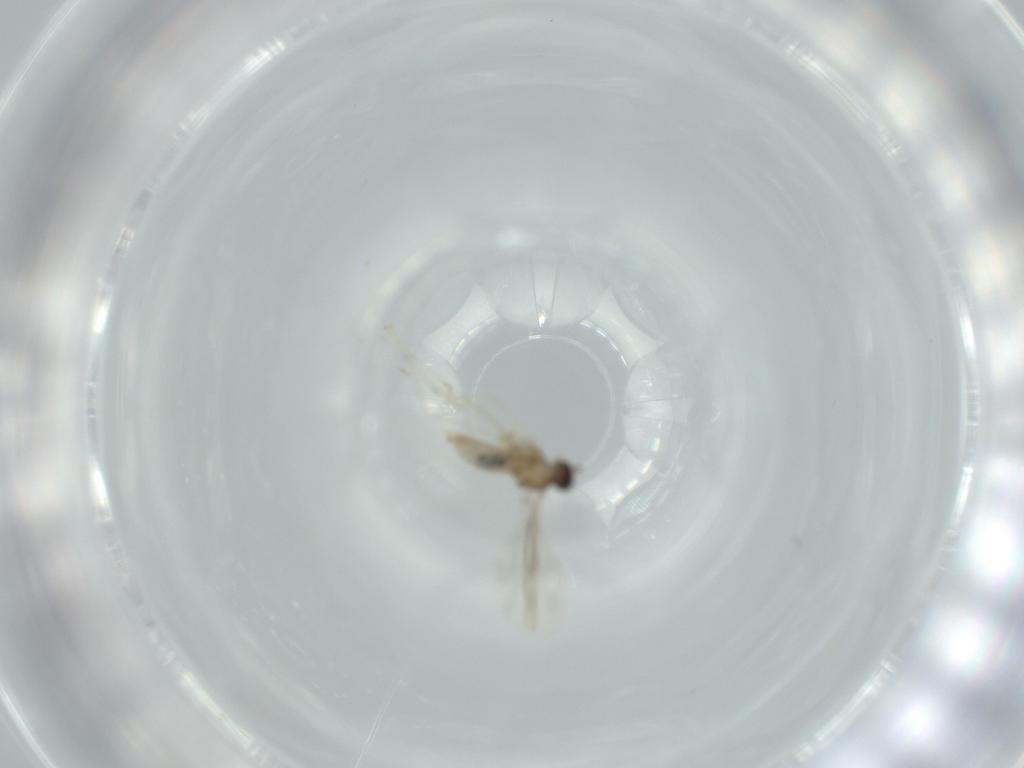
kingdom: Animalia
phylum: Arthropoda
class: Insecta
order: Diptera
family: Cecidomyiidae
